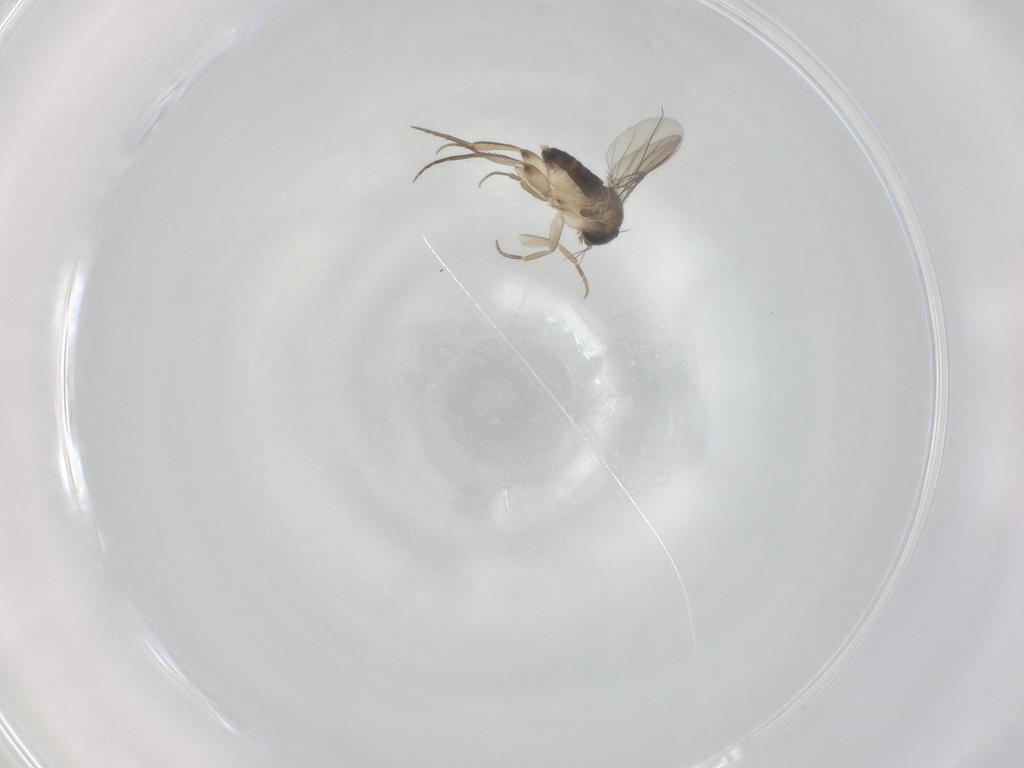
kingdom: Animalia
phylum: Arthropoda
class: Insecta
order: Diptera
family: Phoridae
